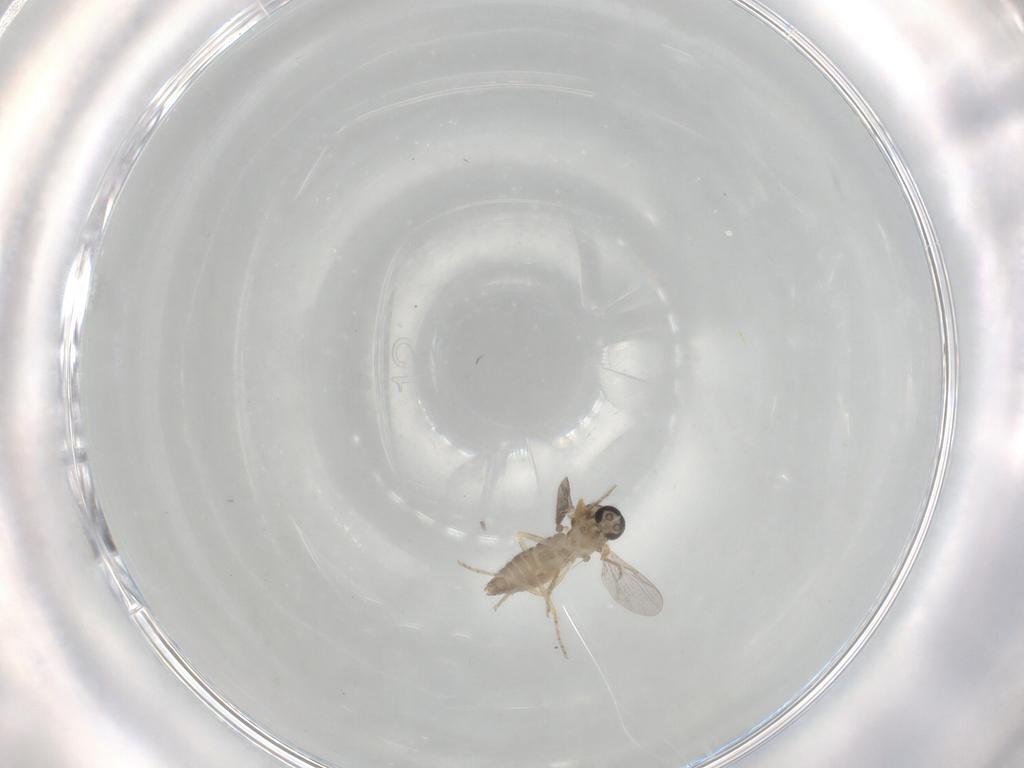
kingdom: Animalia
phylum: Arthropoda
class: Insecta
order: Diptera
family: Ceratopogonidae
